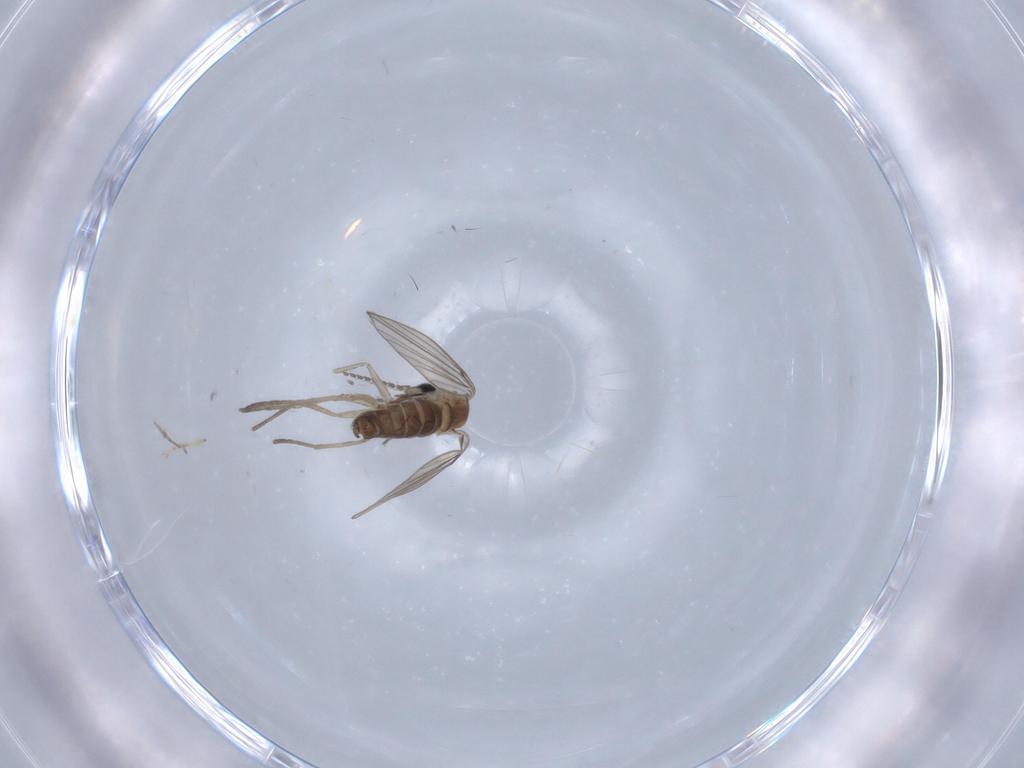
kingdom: Animalia
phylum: Arthropoda
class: Insecta
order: Diptera
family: Chironomidae
